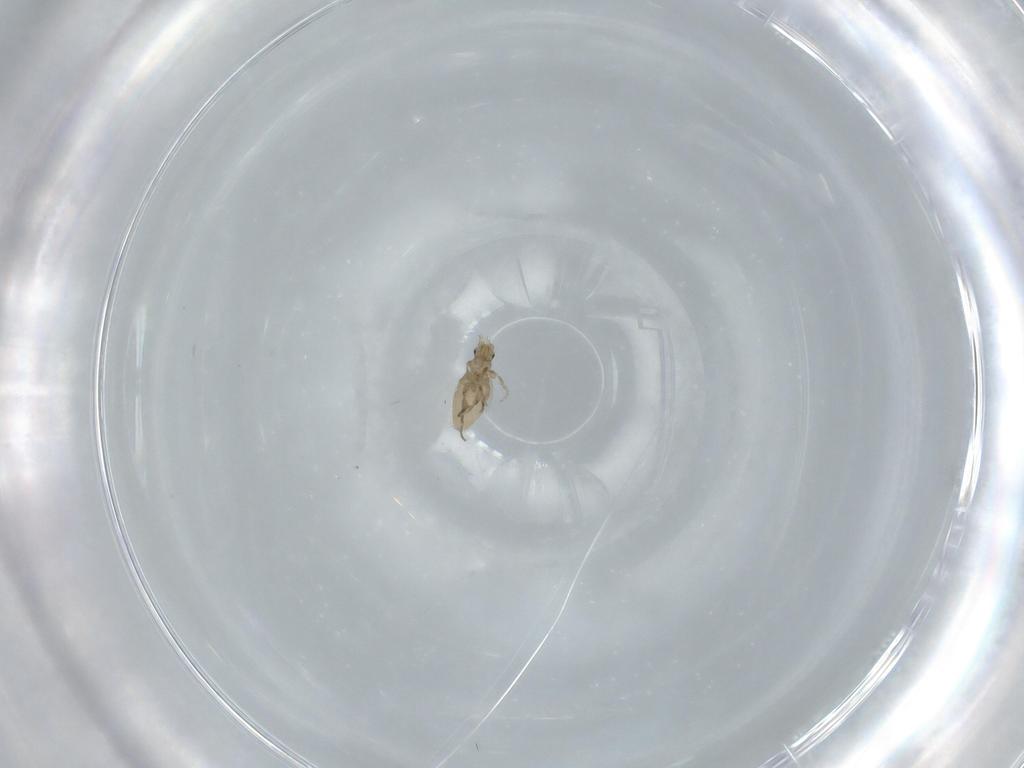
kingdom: Animalia
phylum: Arthropoda
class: Insecta
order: Diptera
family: Phoridae
